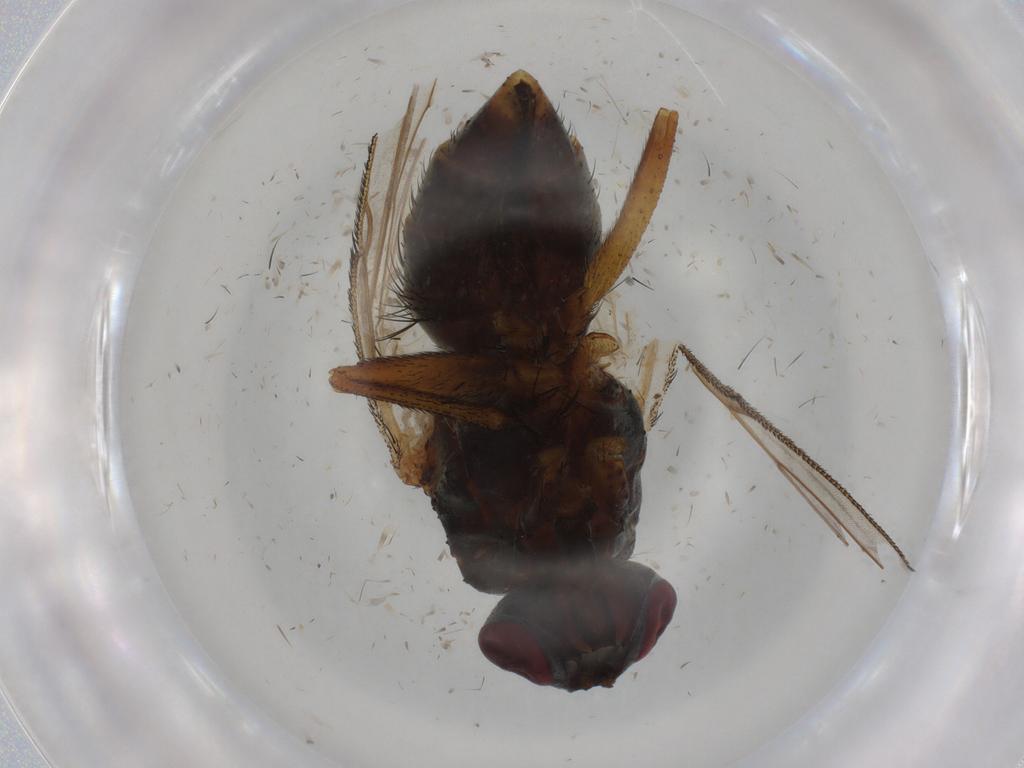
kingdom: Animalia
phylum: Arthropoda
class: Insecta
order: Diptera
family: Muscidae
